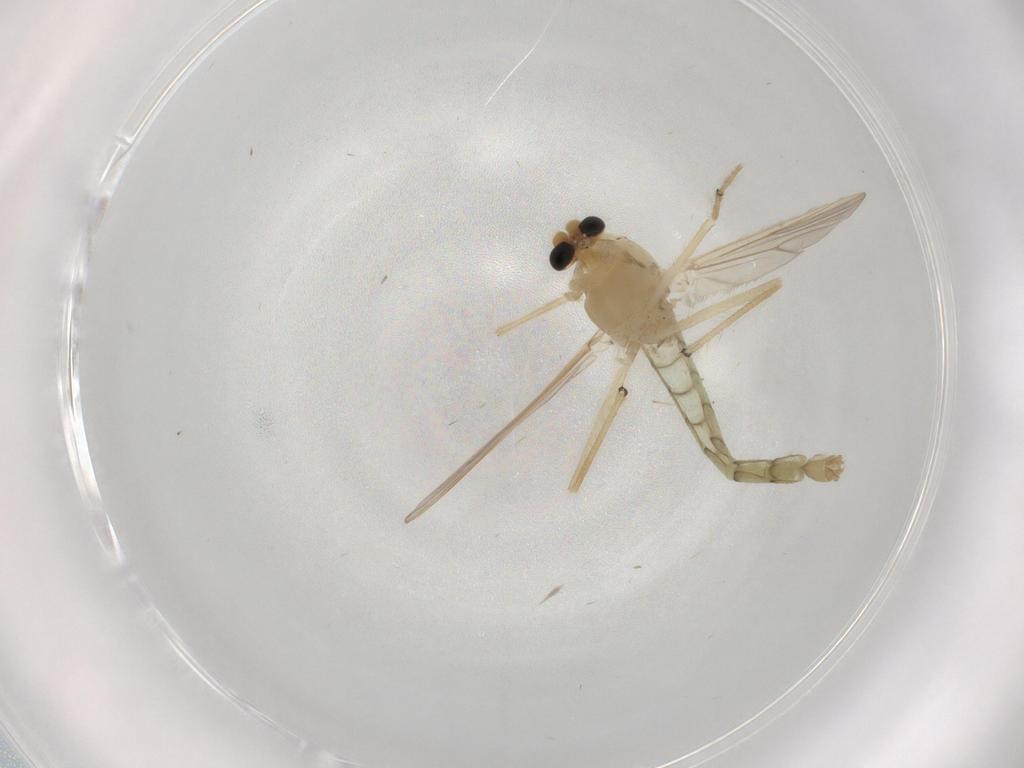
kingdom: Animalia
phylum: Arthropoda
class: Insecta
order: Diptera
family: Chironomidae
